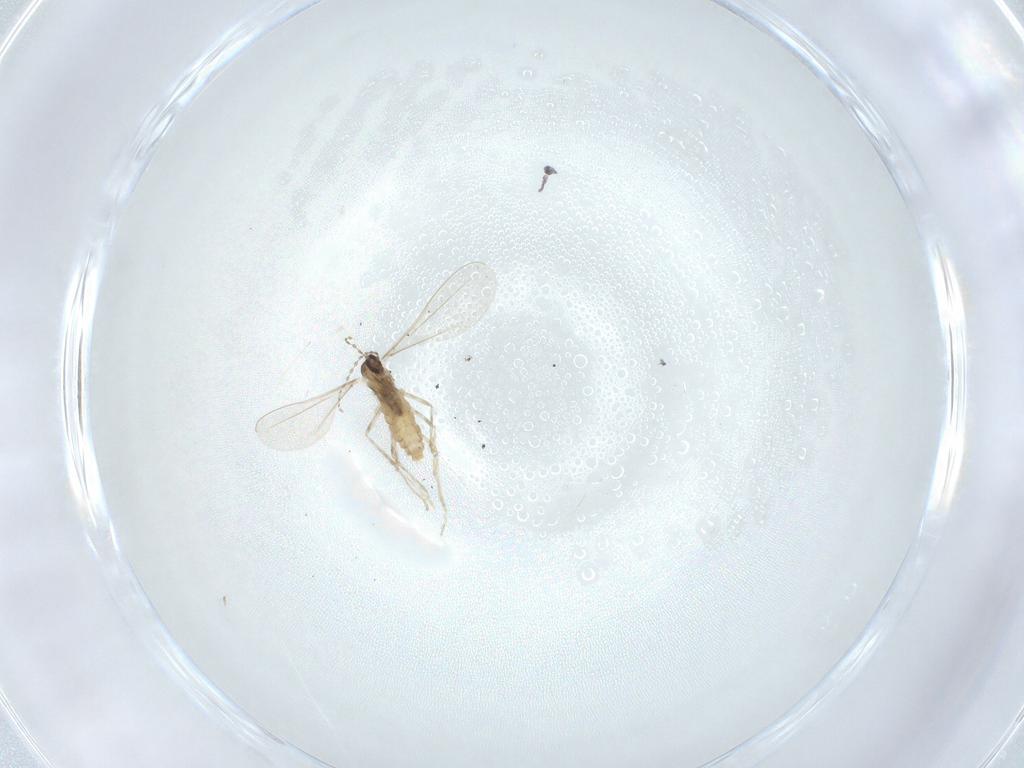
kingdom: Animalia
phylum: Arthropoda
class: Insecta
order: Diptera
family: Cecidomyiidae
